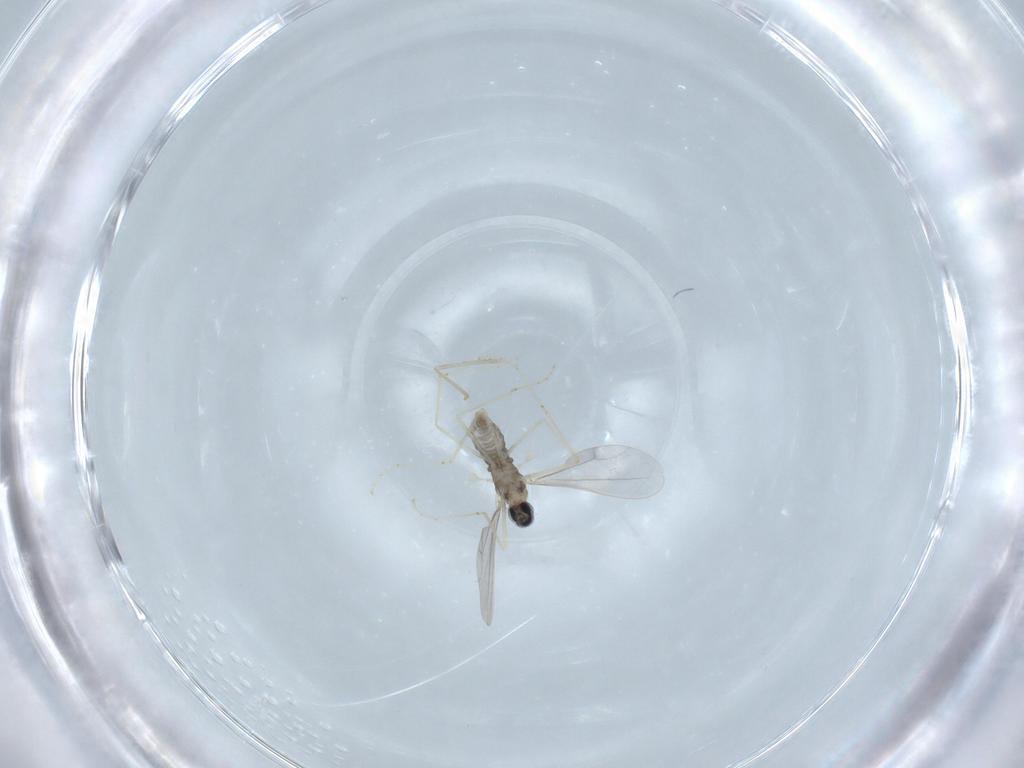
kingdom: Animalia
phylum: Arthropoda
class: Insecta
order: Diptera
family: Cecidomyiidae
